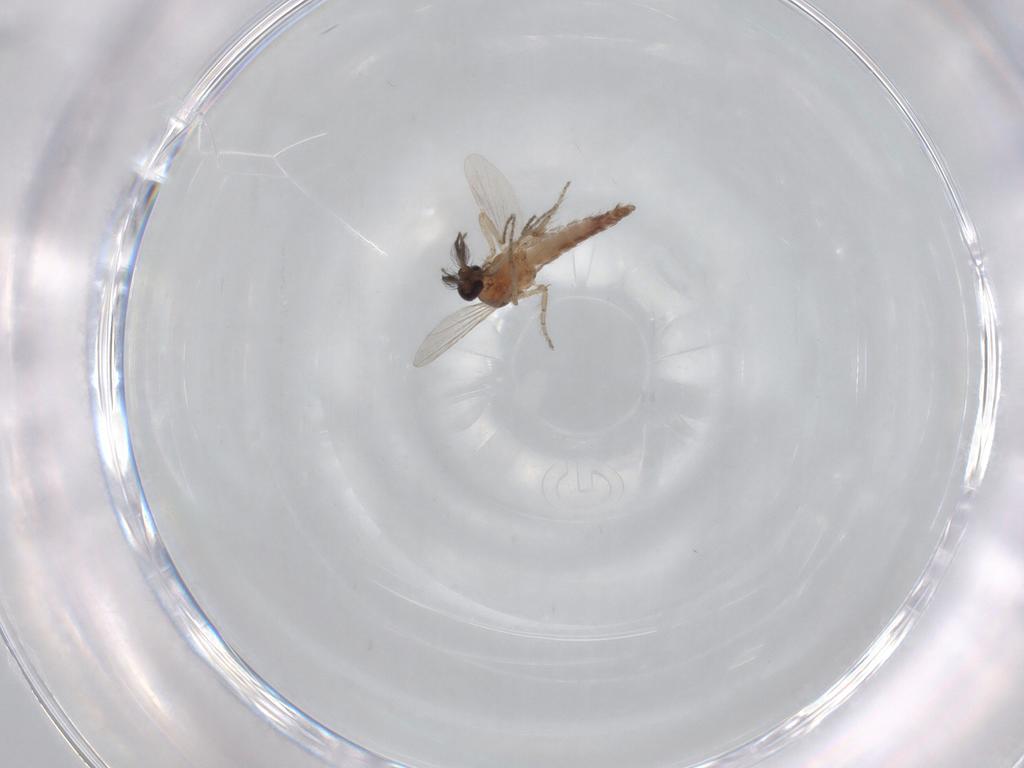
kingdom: Animalia
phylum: Arthropoda
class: Insecta
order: Diptera
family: Ceratopogonidae
